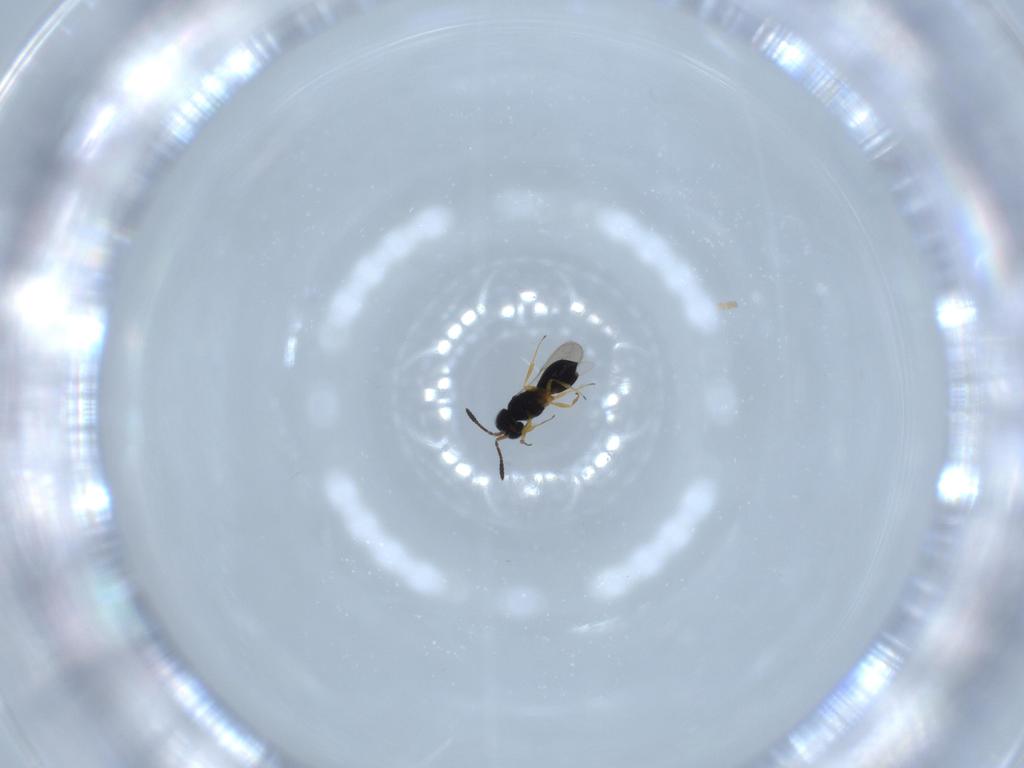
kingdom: Animalia
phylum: Arthropoda
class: Insecta
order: Hymenoptera
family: Scelionidae
